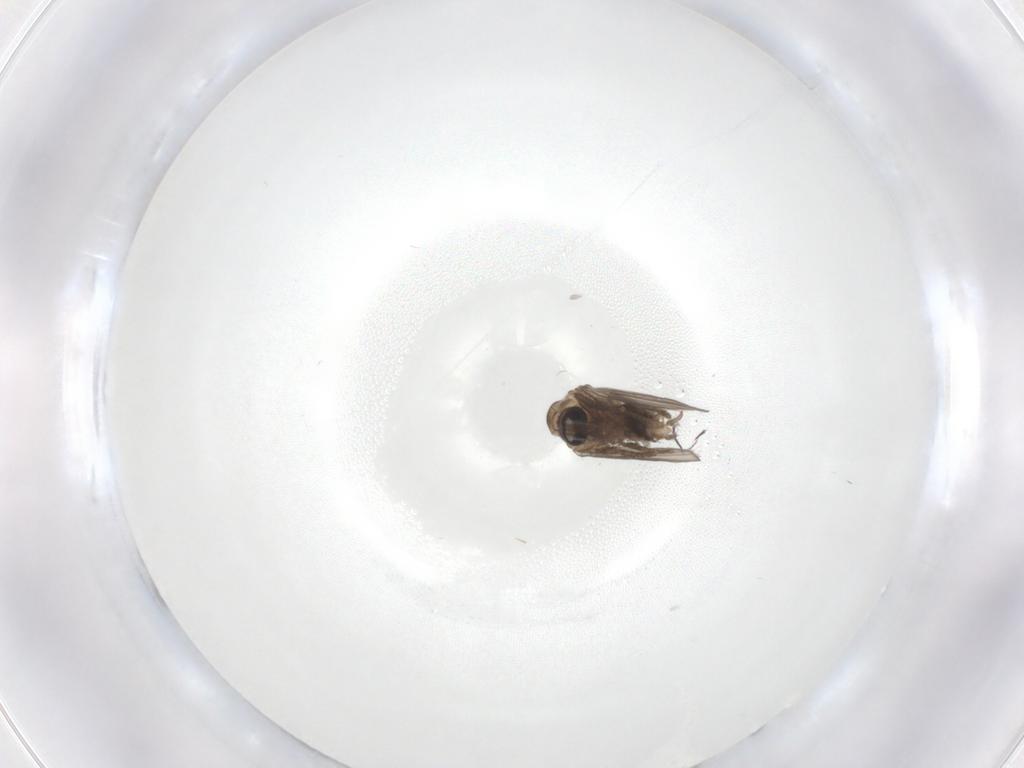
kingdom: Animalia
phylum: Arthropoda
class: Insecta
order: Diptera
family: Psychodidae
